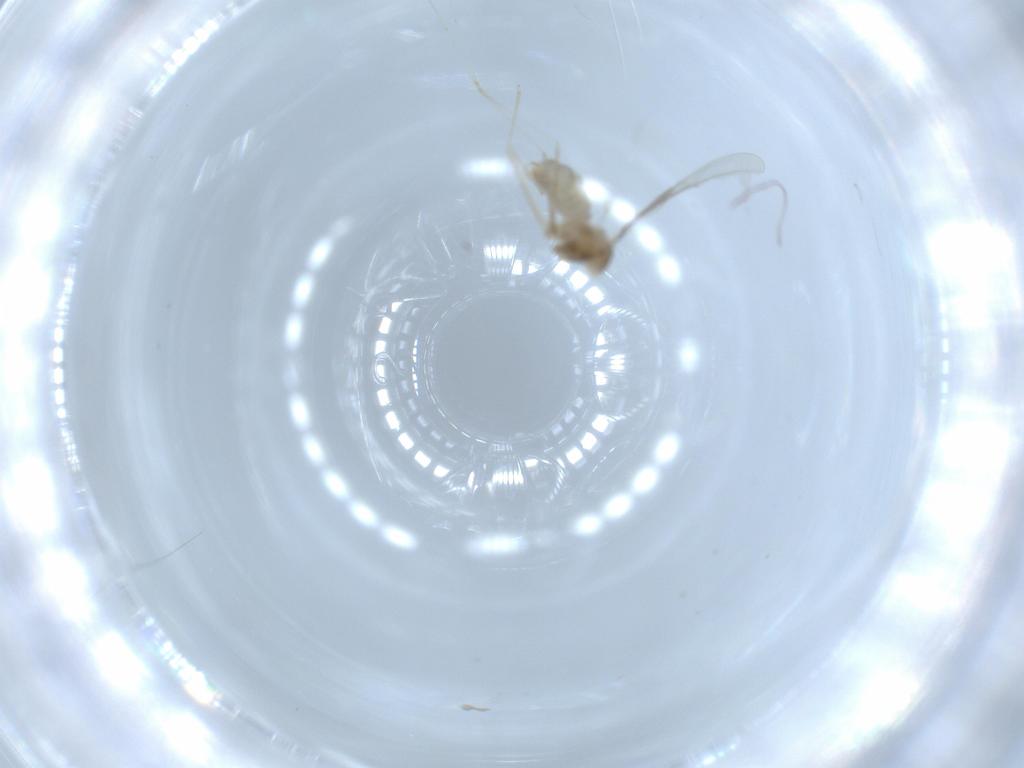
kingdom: Animalia
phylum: Arthropoda
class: Insecta
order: Diptera
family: Cecidomyiidae
